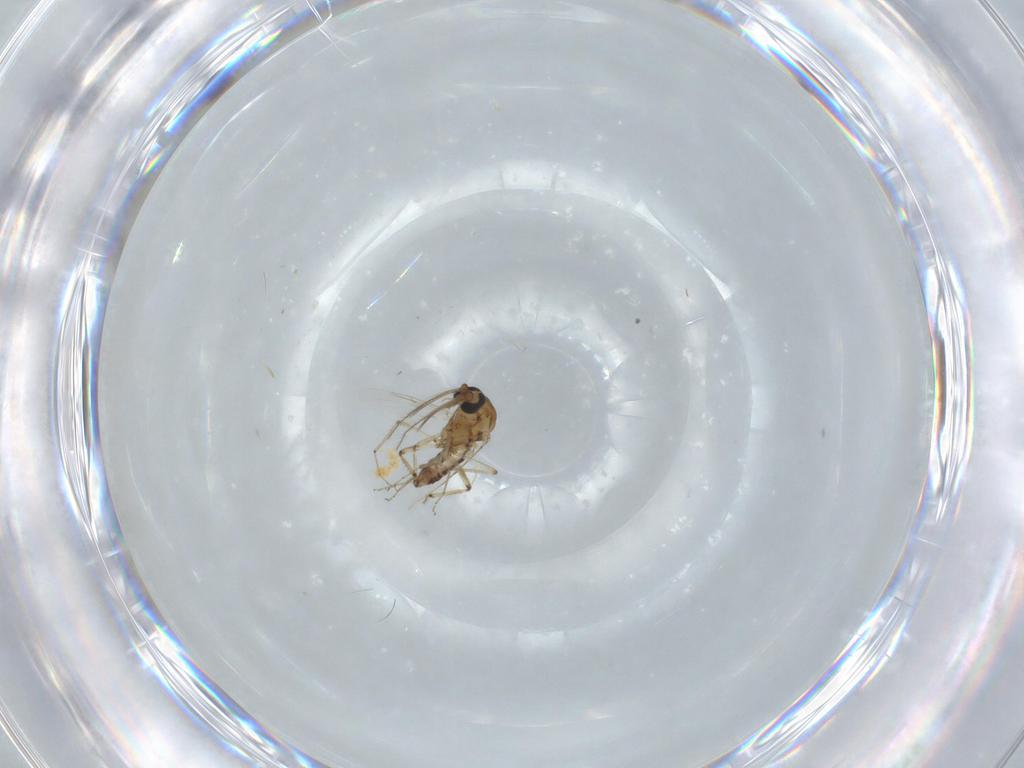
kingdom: Animalia
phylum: Arthropoda
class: Insecta
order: Diptera
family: Ceratopogonidae
